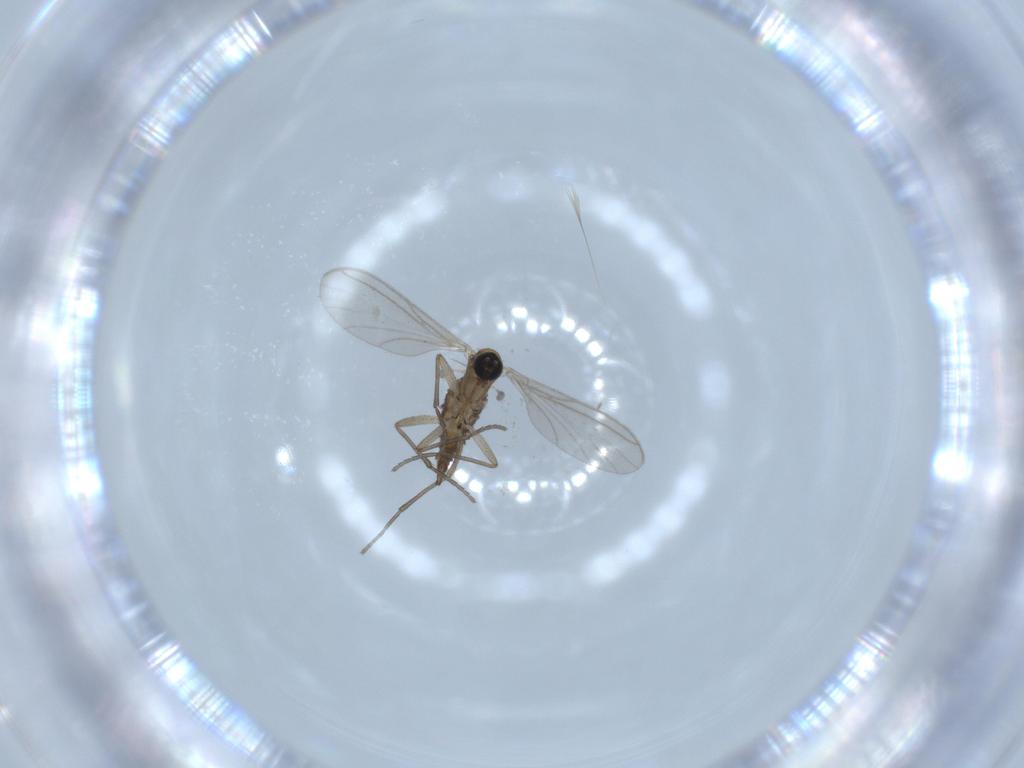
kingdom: Animalia
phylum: Arthropoda
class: Insecta
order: Diptera
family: Sciaridae
